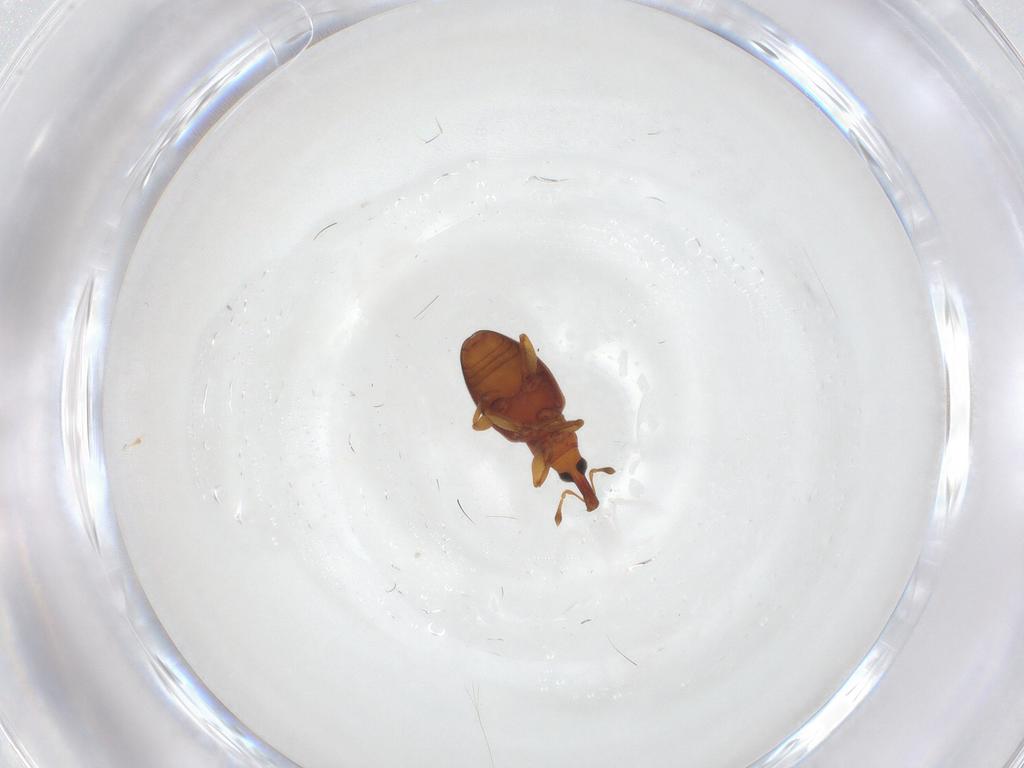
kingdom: Animalia
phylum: Arthropoda
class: Insecta
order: Coleoptera
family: Curculionidae
